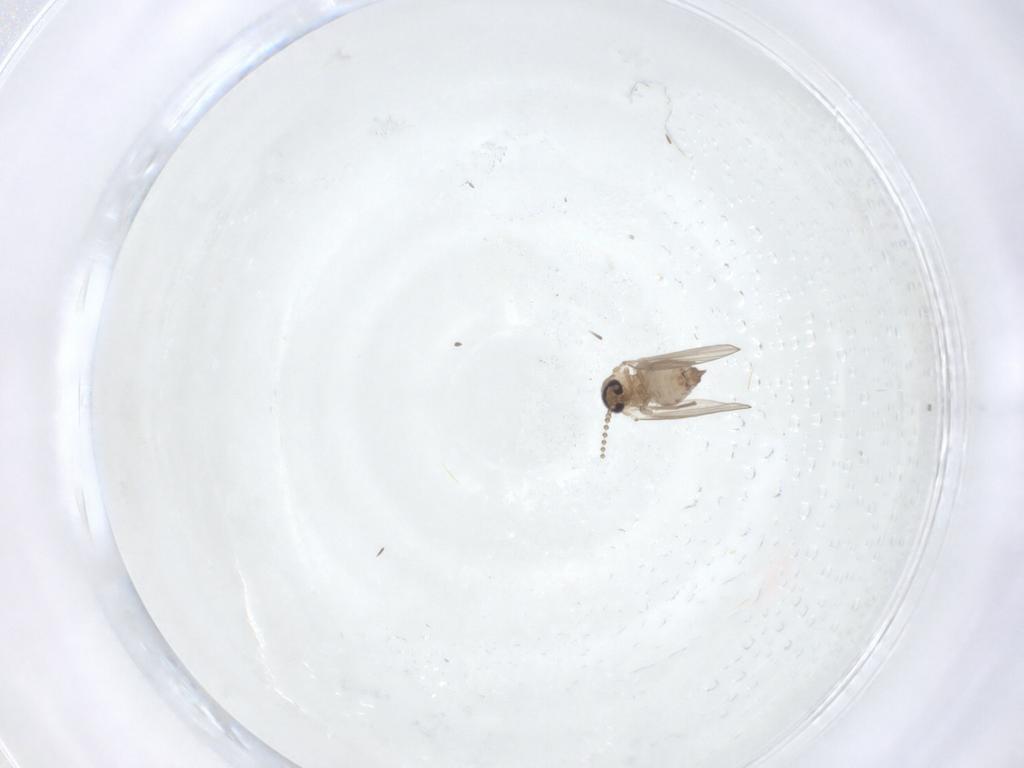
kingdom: Animalia
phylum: Arthropoda
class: Insecta
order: Diptera
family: Psychodidae
